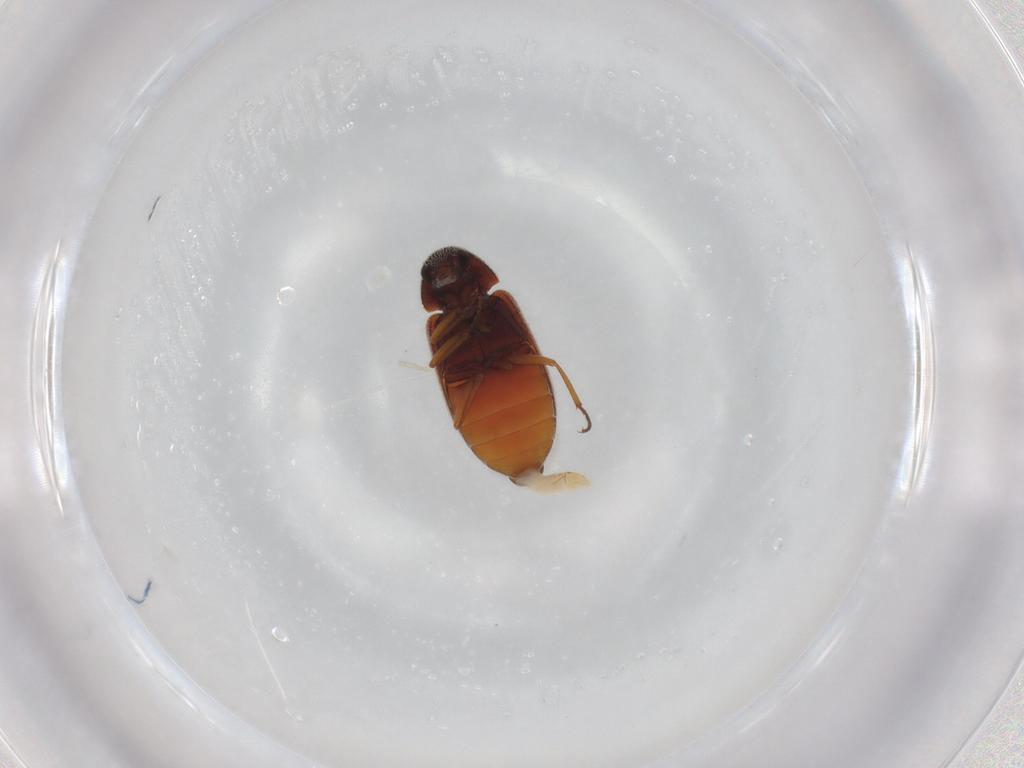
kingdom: Animalia
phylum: Arthropoda
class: Insecta
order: Coleoptera
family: Rhadalidae
